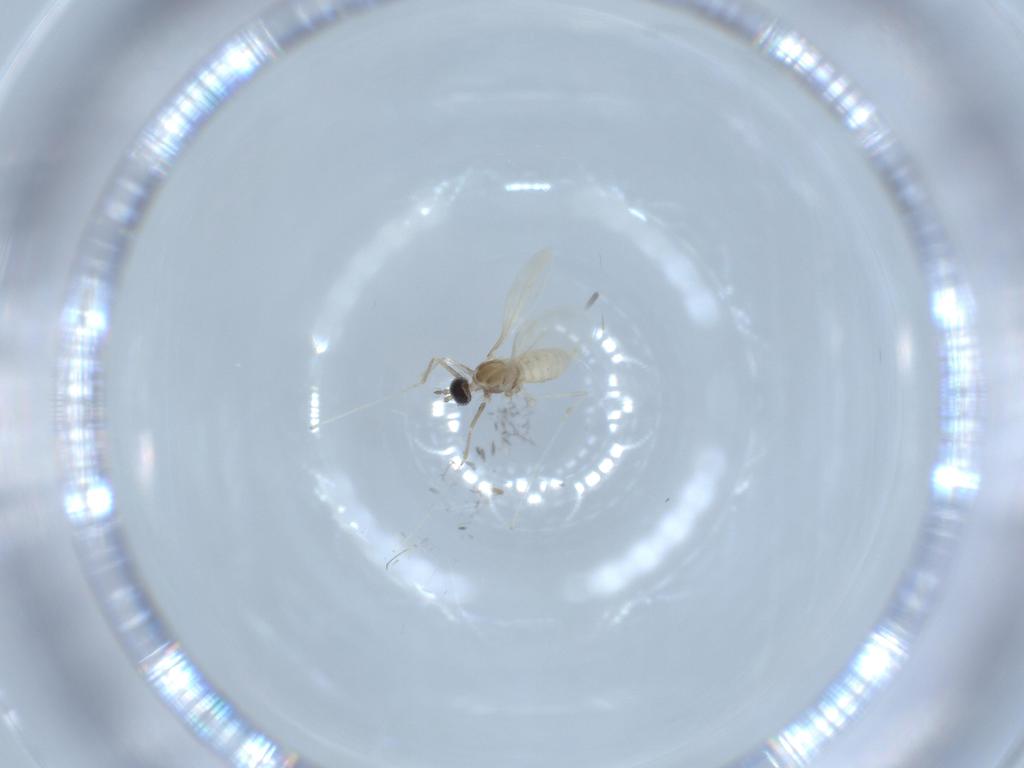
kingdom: Animalia
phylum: Arthropoda
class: Insecta
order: Diptera
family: Cecidomyiidae
